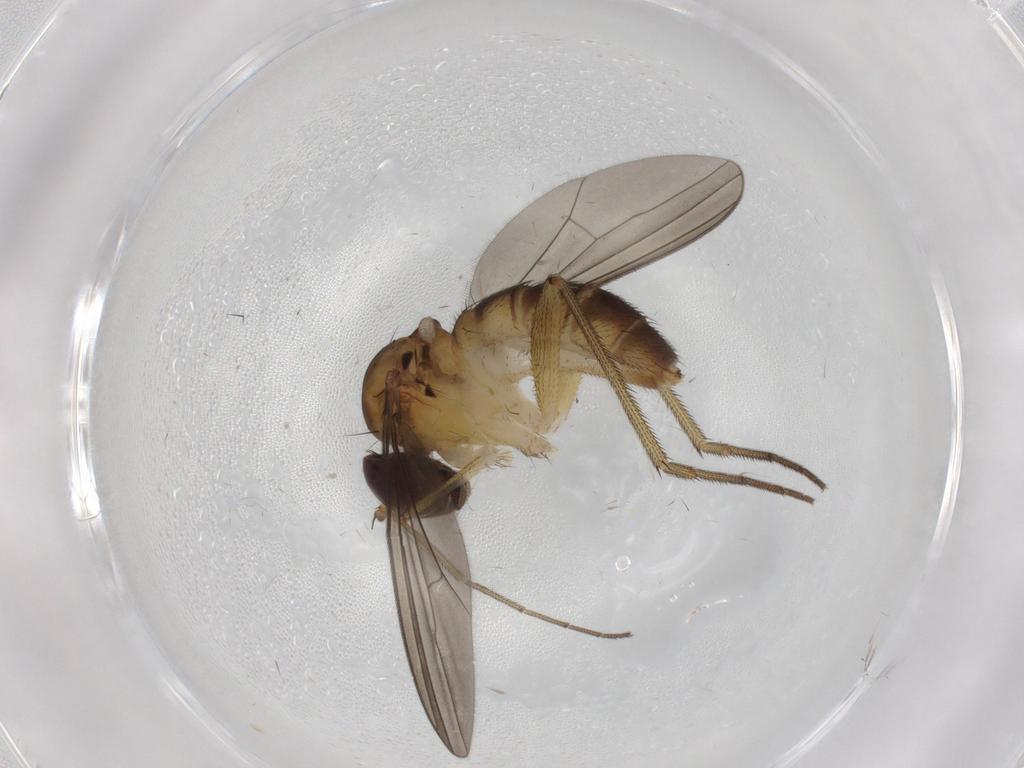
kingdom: Animalia
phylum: Arthropoda
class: Insecta
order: Diptera
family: Dolichopodidae
